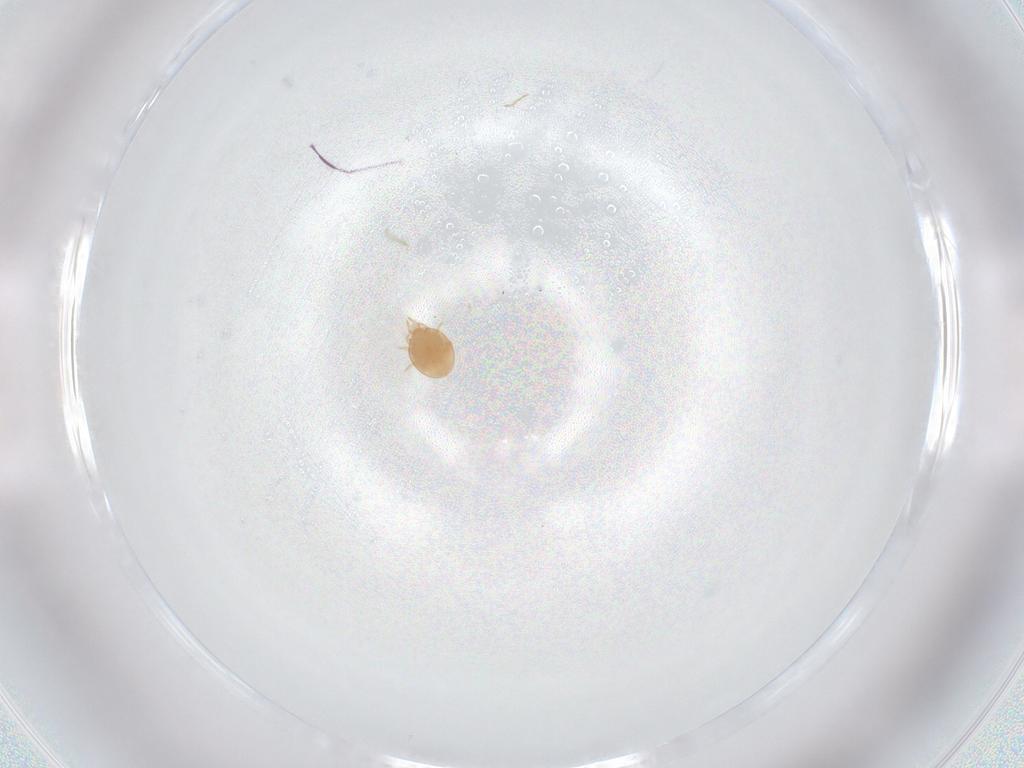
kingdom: Animalia
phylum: Arthropoda
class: Arachnida
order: Mesostigmata
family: Trematuridae
